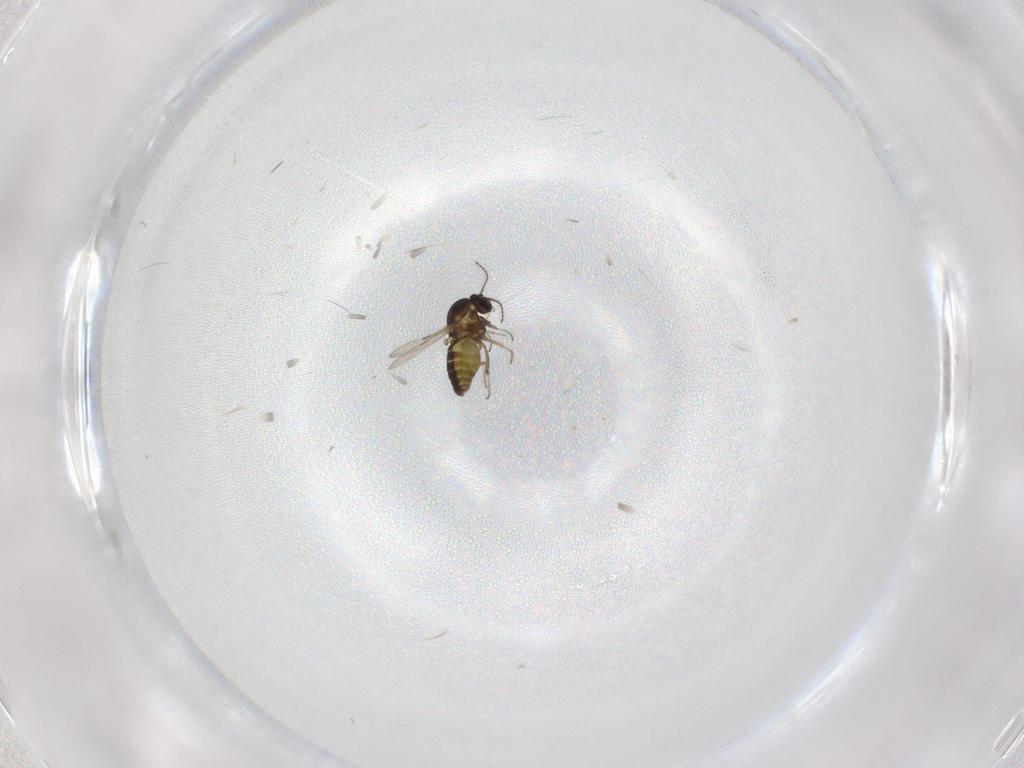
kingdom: Animalia
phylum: Arthropoda
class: Insecta
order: Diptera
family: Ceratopogonidae
